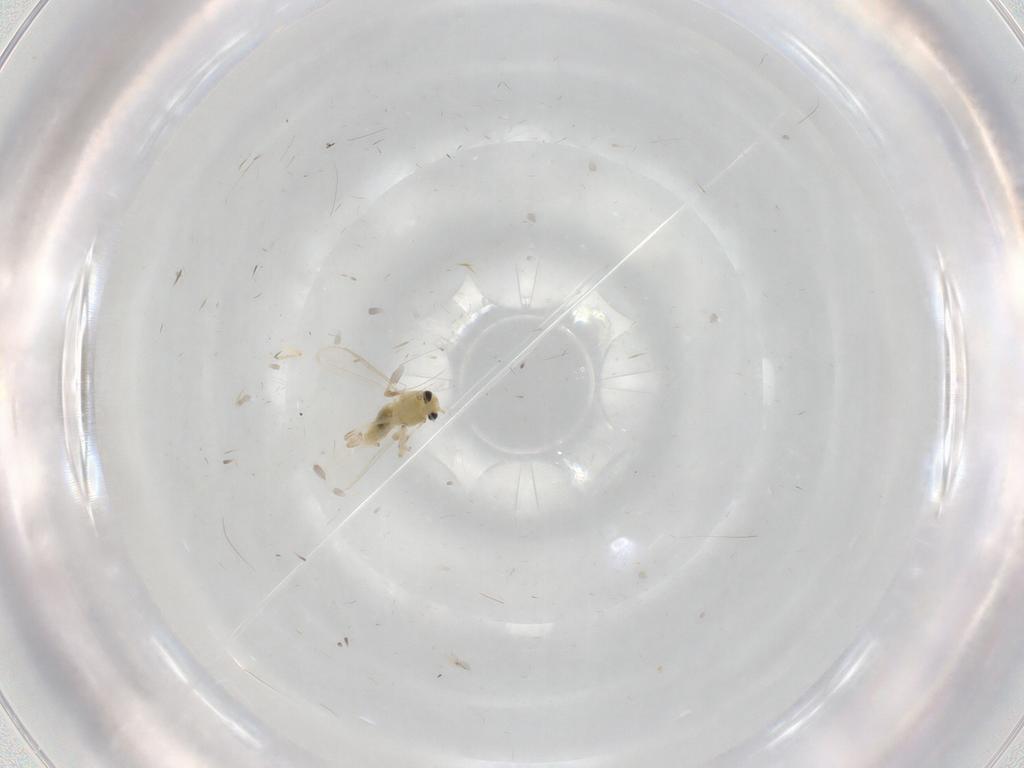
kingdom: Animalia
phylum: Arthropoda
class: Insecta
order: Diptera
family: Chironomidae
